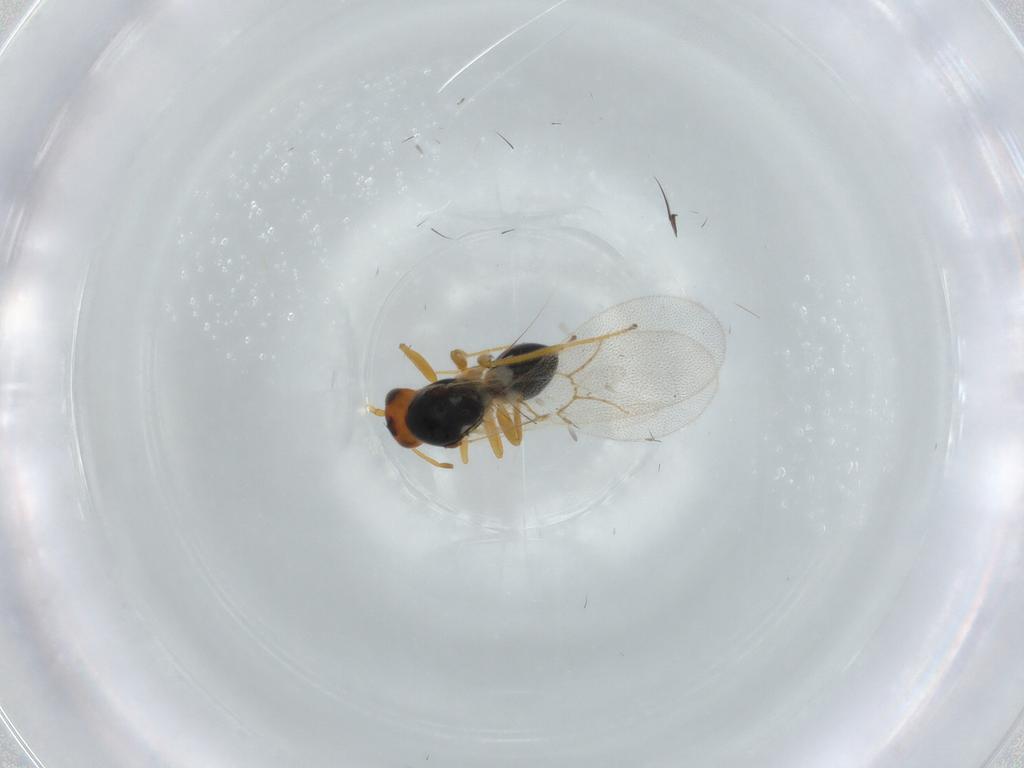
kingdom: Animalia
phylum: Arthropoda
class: Insecta
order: Hymenoptera
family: Figitidae
